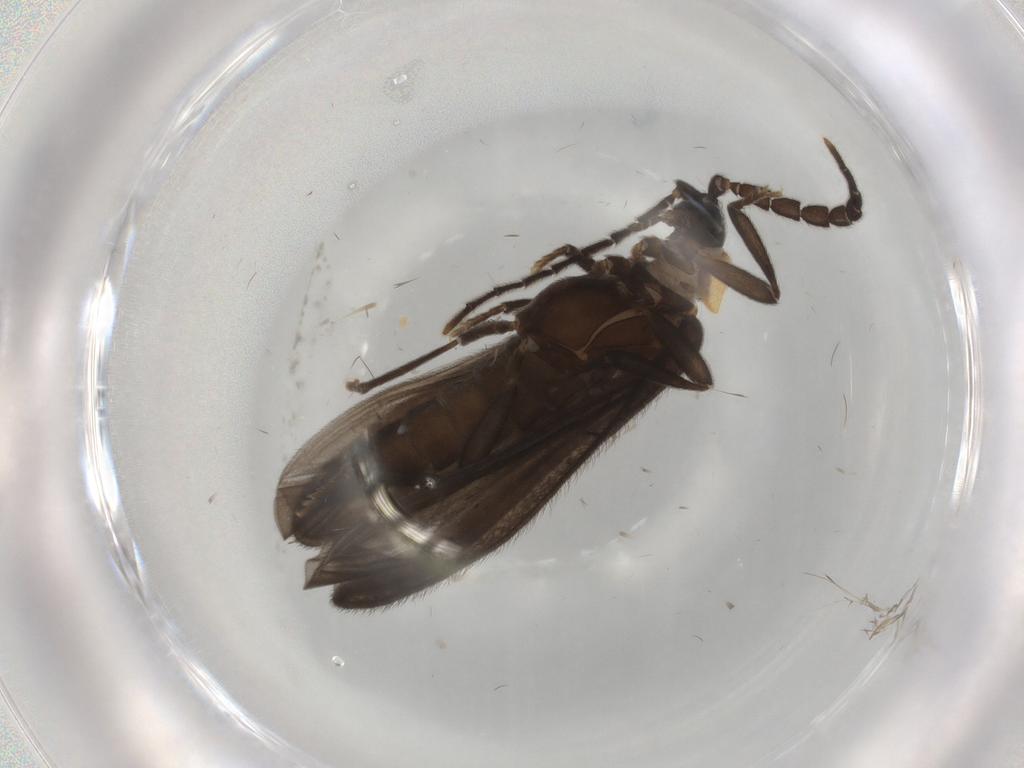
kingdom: Animalia
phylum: Arthropoda
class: Insecta
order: Coleoptera
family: Lycidae
